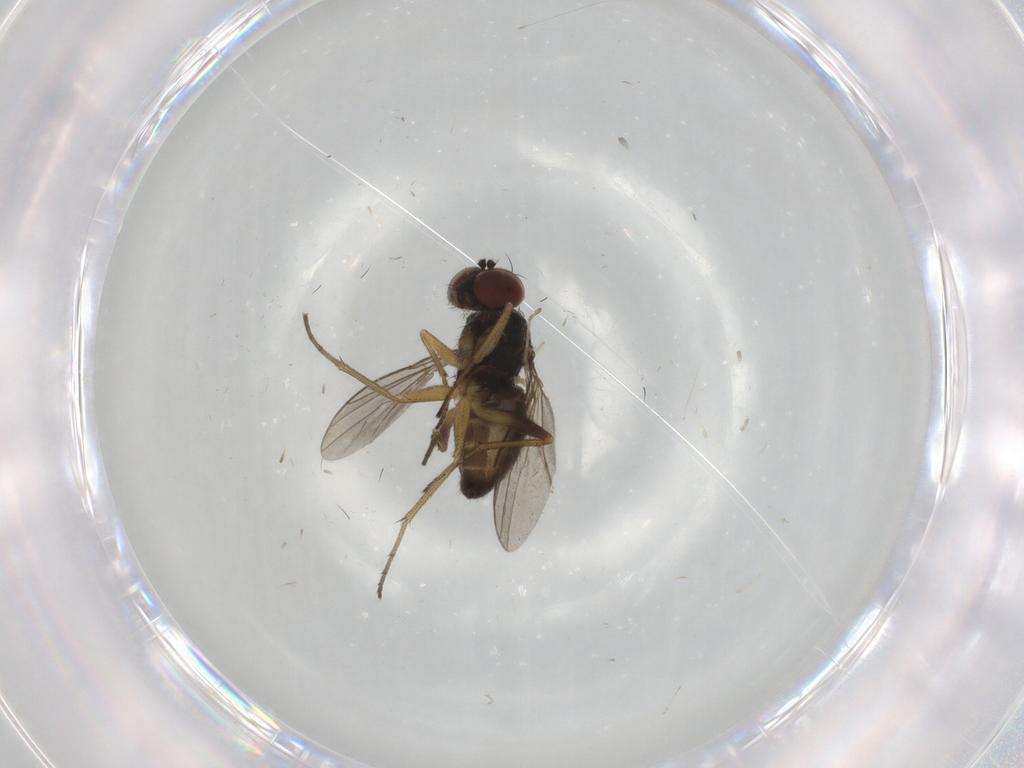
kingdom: Animalia
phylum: Arthropoda
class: Insecta
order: Diptera
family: Dolichopodidae
